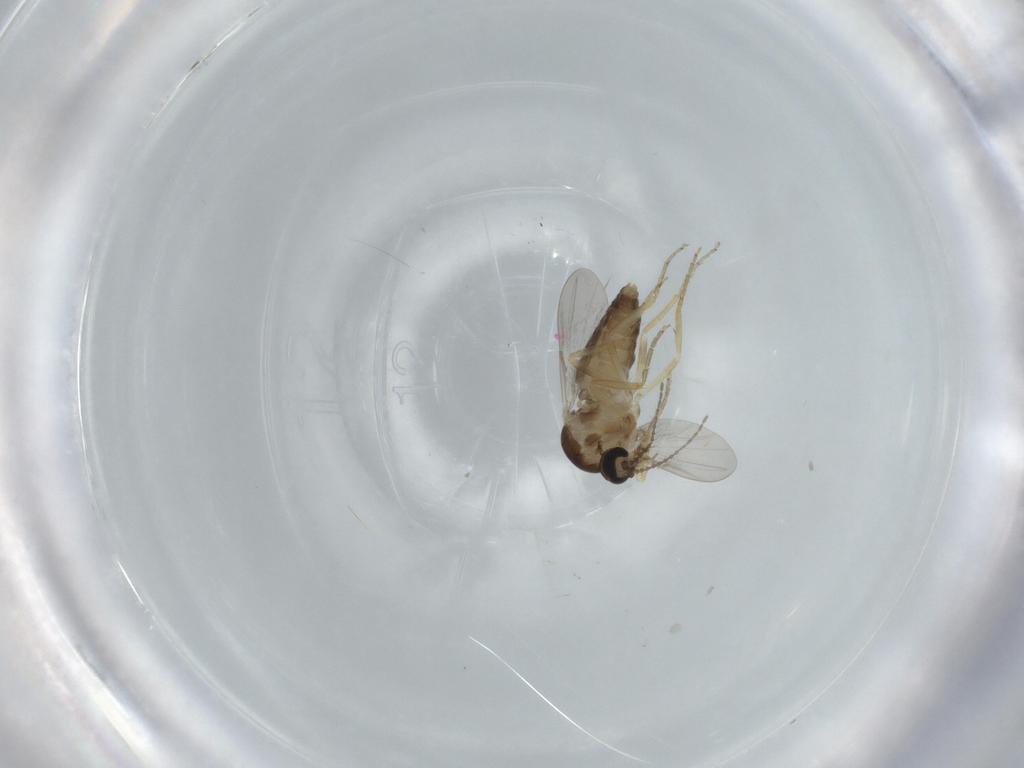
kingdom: Animalia
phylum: Arthropoda
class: Insecta
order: Diptera
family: Ceratopogonidae
